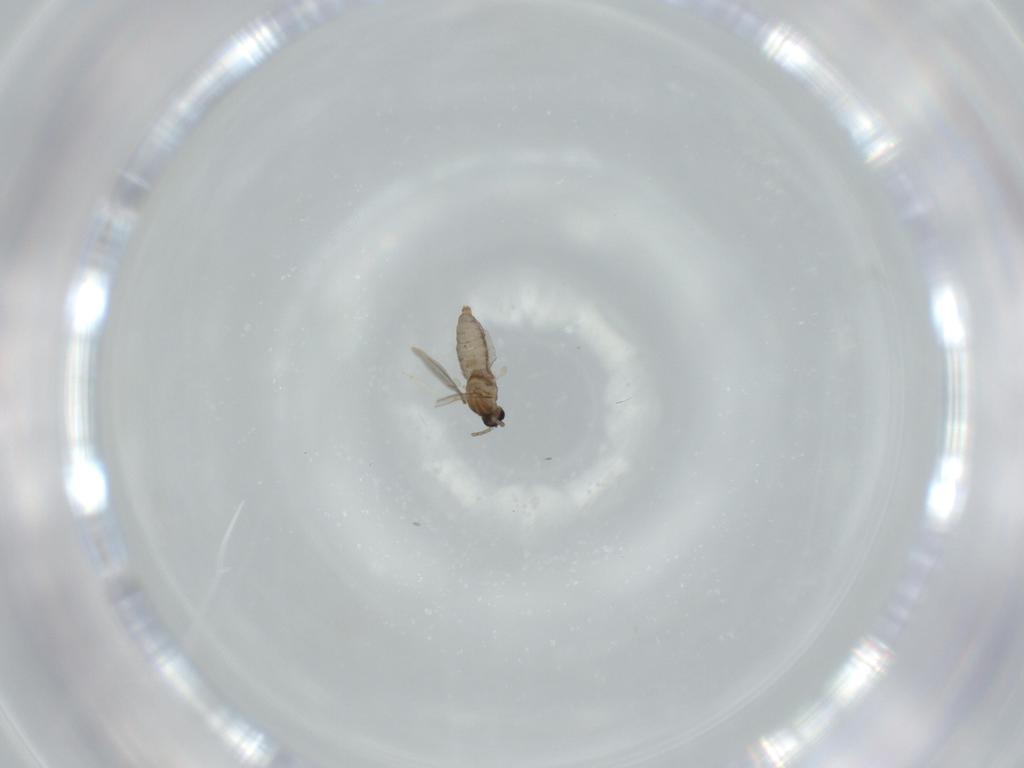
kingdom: Animalia
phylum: Arthropoda
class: Insecta
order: Diptera
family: Cecidomyiidae
